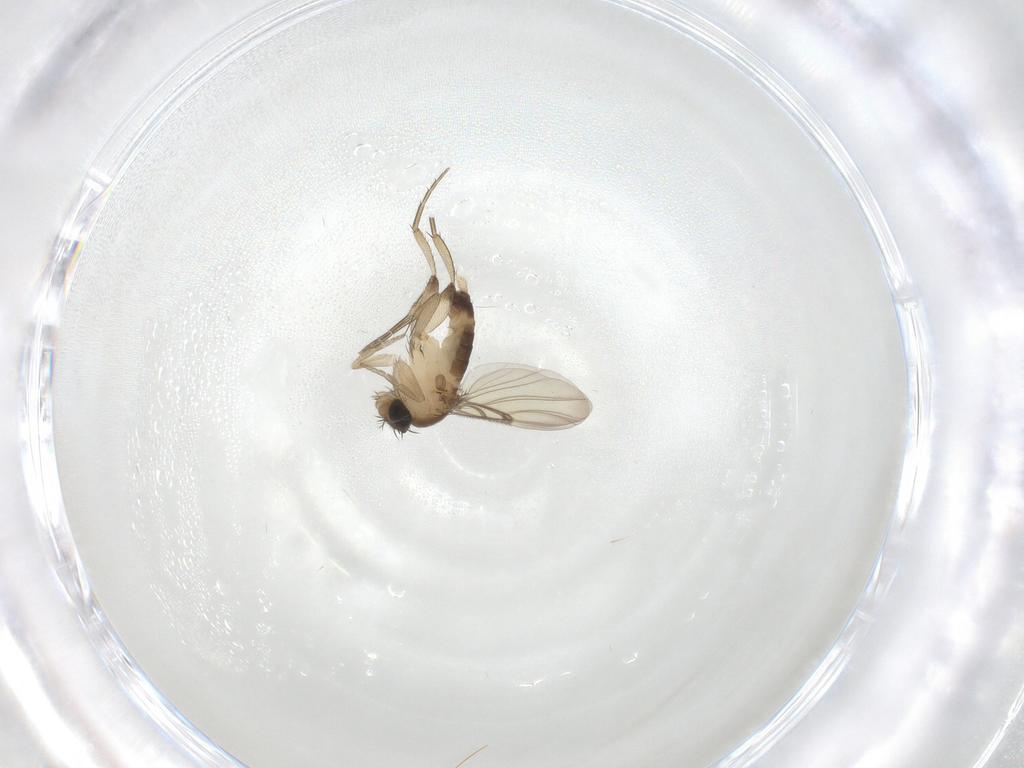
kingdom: Animalia
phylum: Arthropoda
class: Insecta
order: Diptera
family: Phoridae
